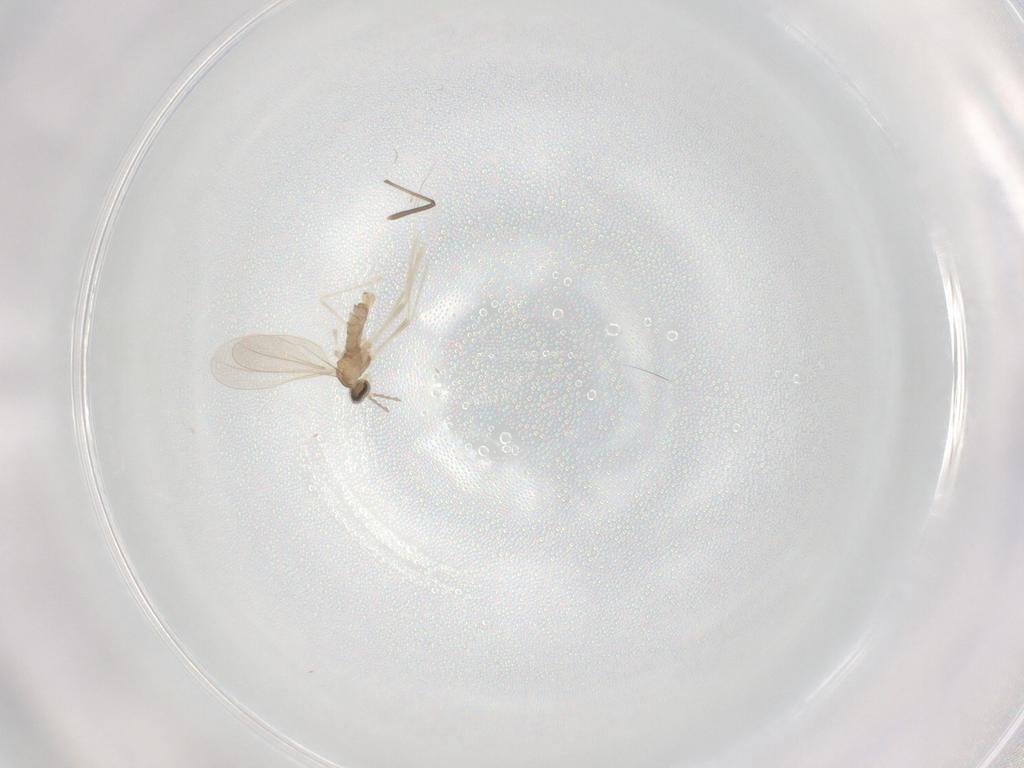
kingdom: Animalia
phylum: Arthropoda
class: Insecta
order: Diptera
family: Cecidomyiidae
